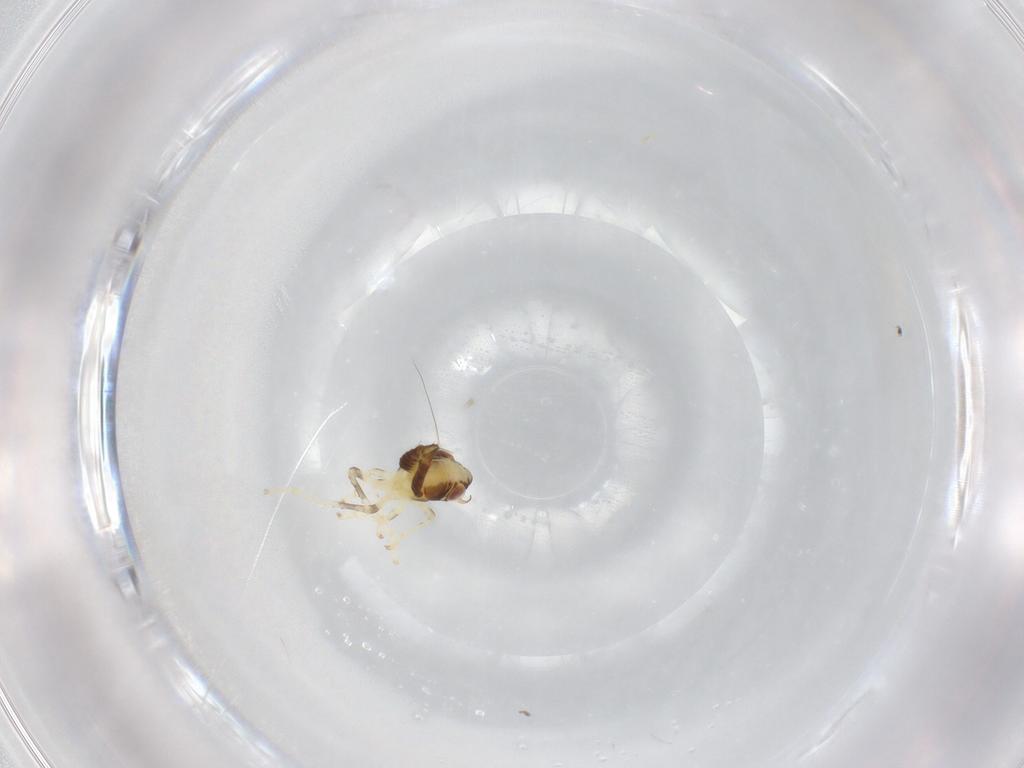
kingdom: Animalia
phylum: Arthropoda
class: Insecta
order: Hemiptera
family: Cicadellidae
